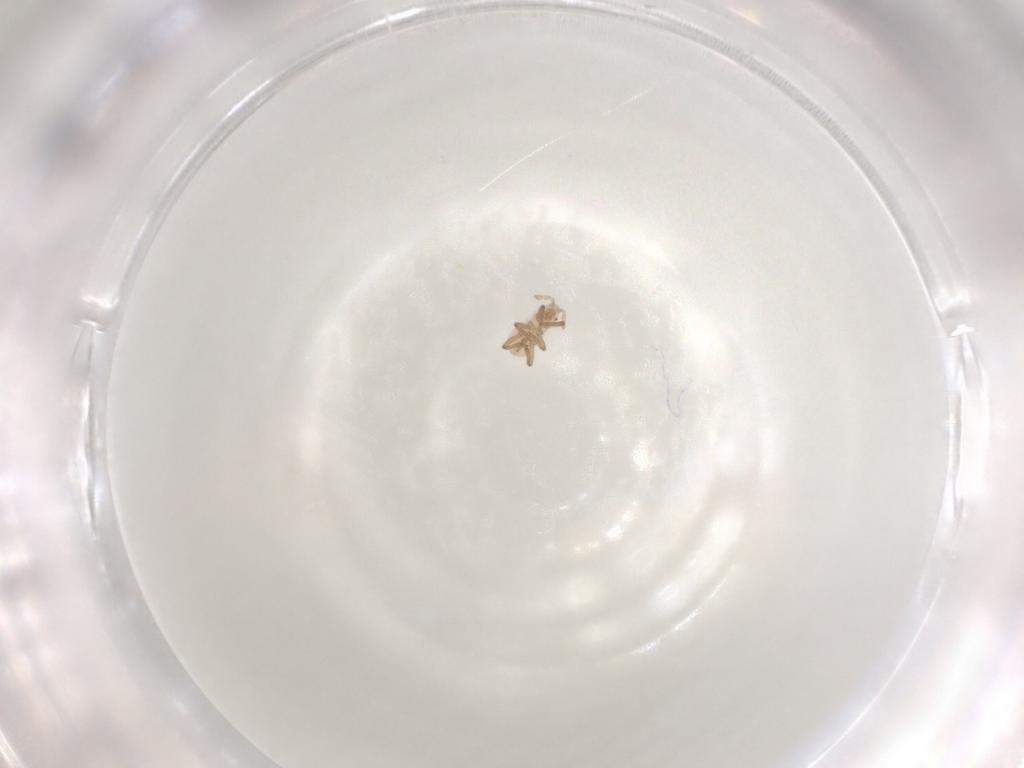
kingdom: Animalia
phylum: Arthropoda
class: Insecta
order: Hemiptera
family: Aphididae
